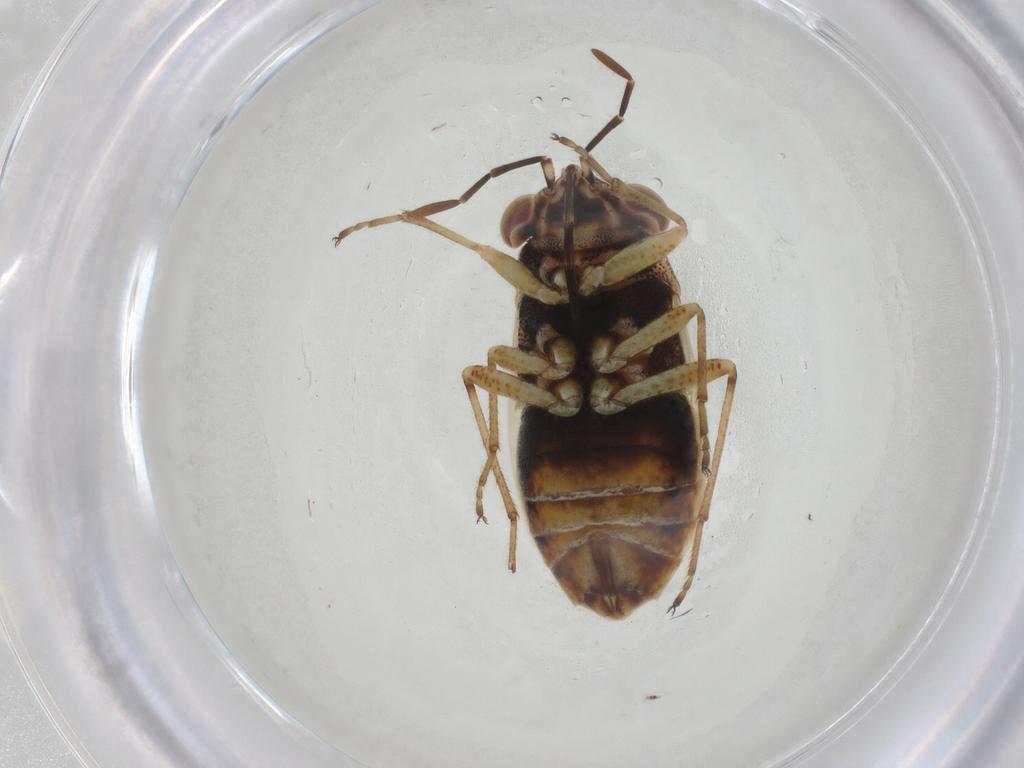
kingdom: Animalia
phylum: Arthropoda
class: Insecta
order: Hemiptera
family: Geocoridae
